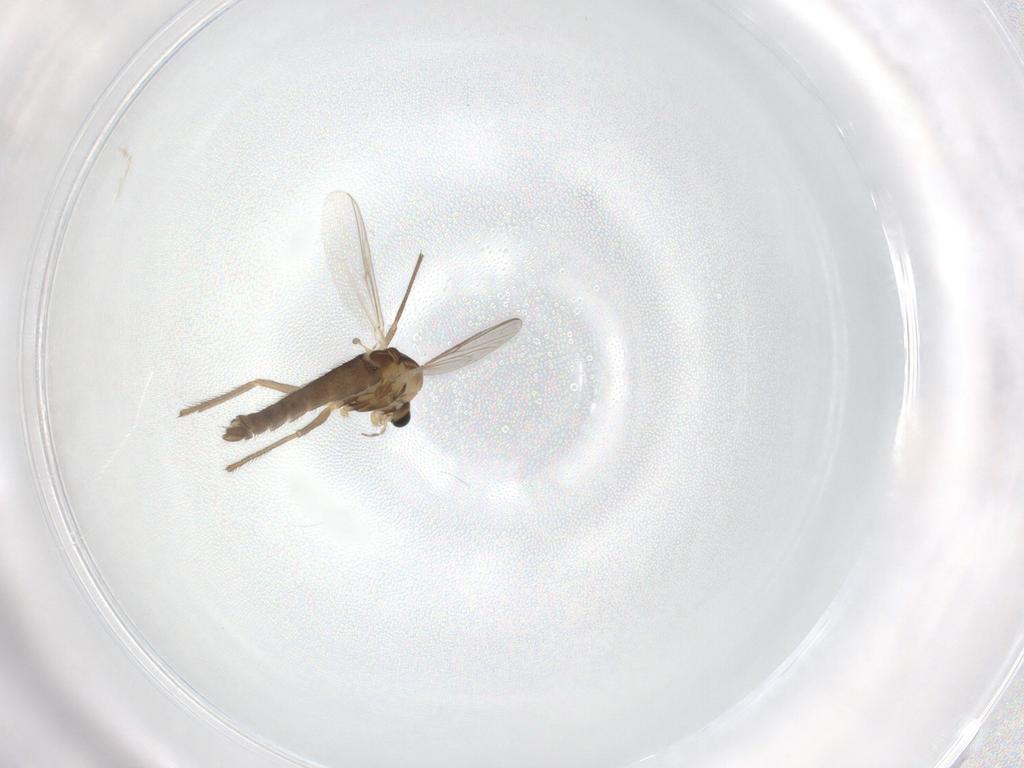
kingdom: Animalia
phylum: Arthropoda
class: Insecta
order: Diptera
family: Chironomidae
